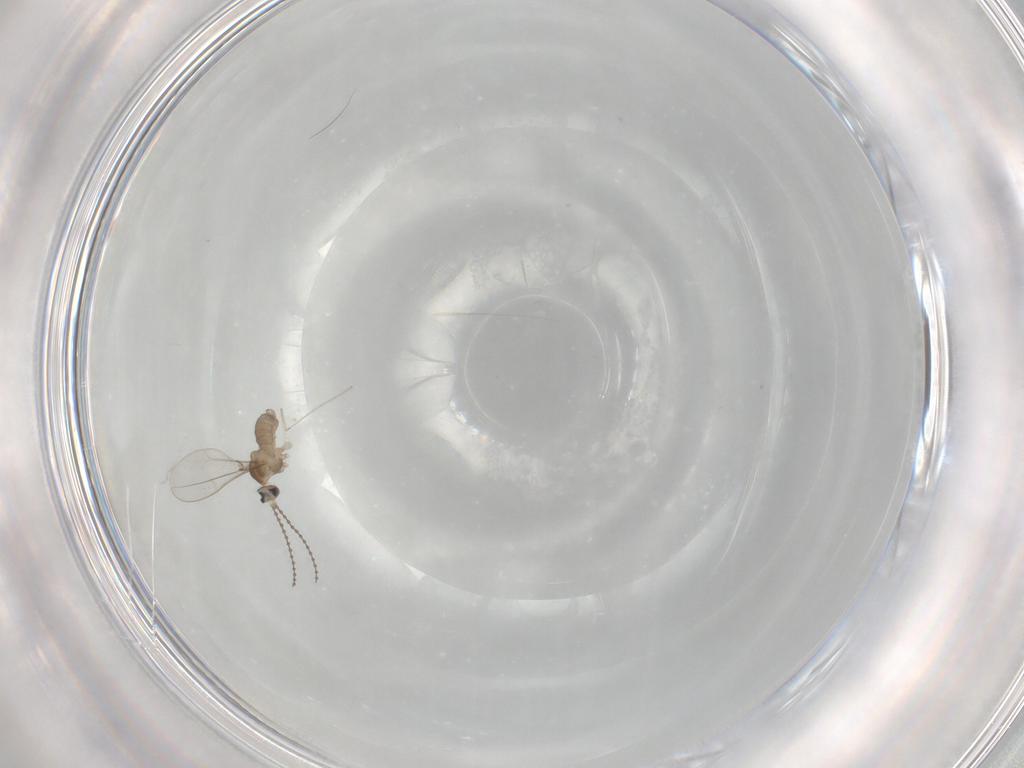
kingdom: Animalia
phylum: Arthropoda
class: Insecta
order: Diptera
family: Cecidomyiidae
